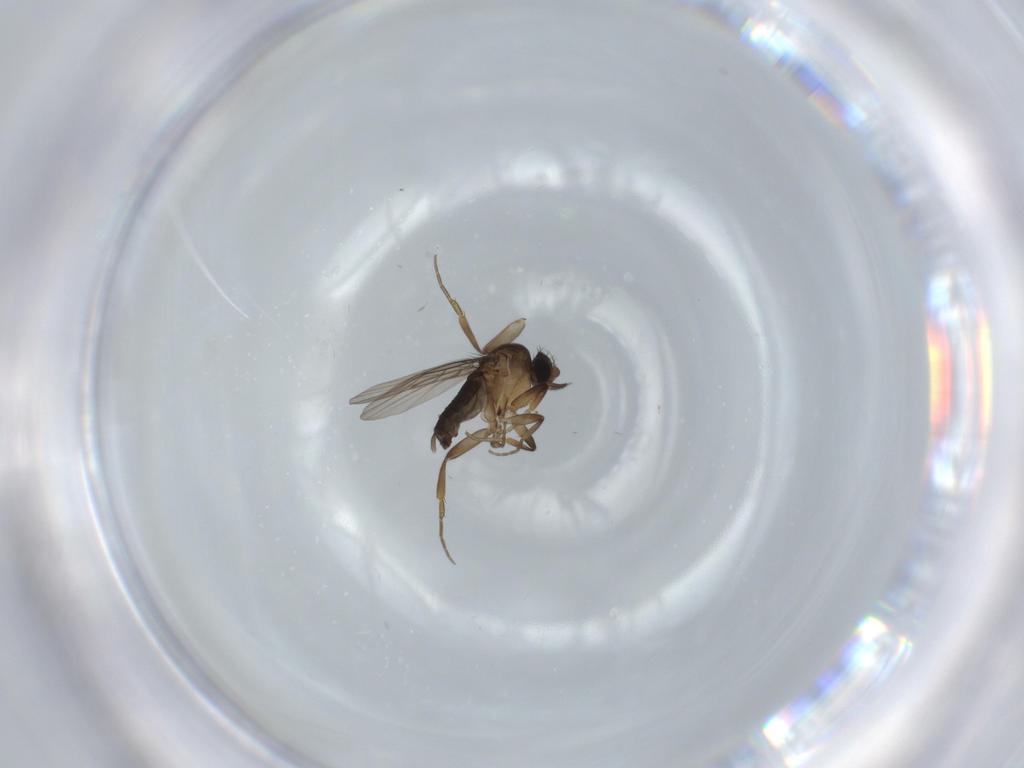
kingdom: Animalia
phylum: Arthropoda
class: Insecta
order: Diptera
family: Phoridae
